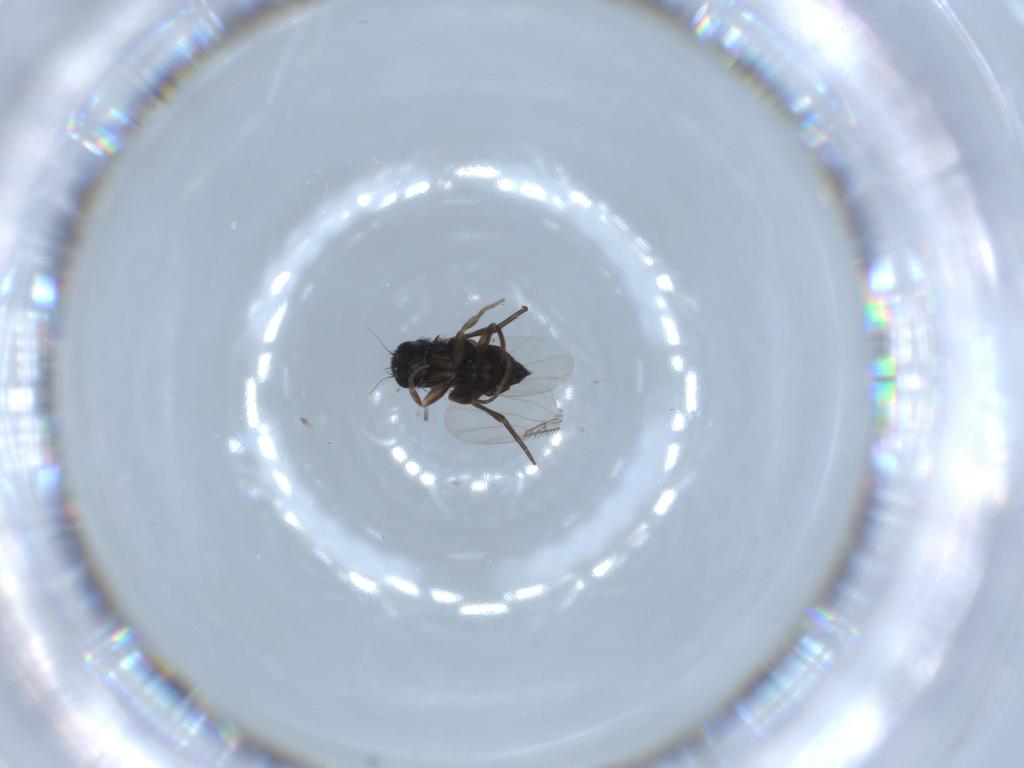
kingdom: Animalia
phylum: Arthropoda
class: Insecta
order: Diptera
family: Phoridae
